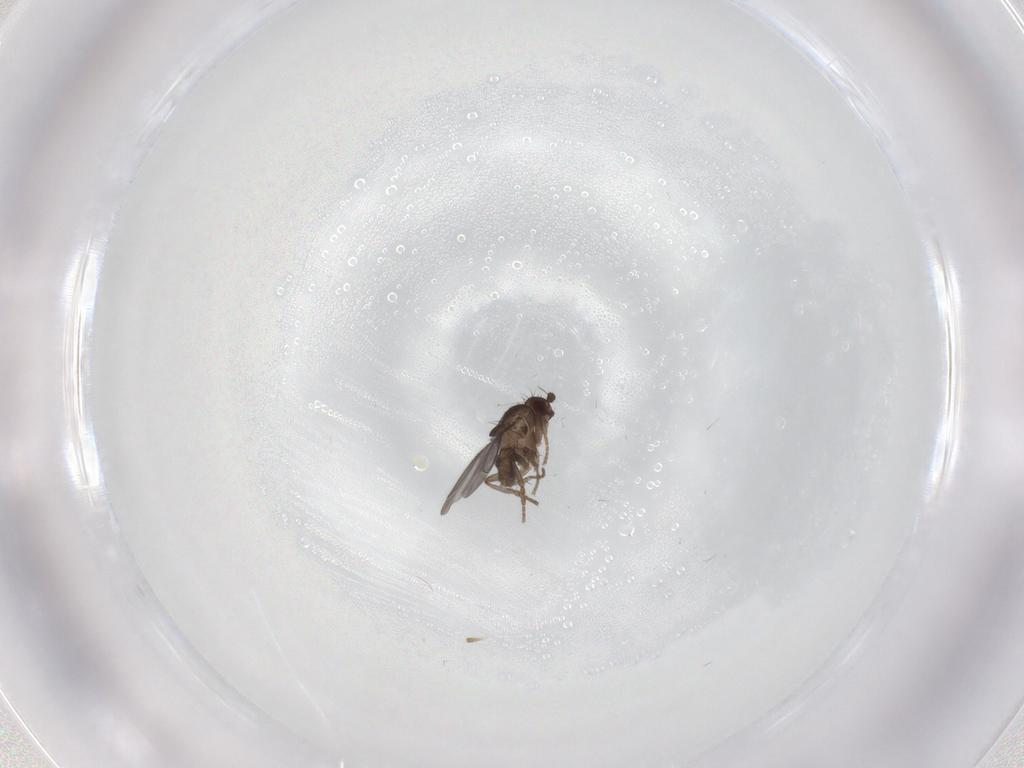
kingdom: Animalia
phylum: Arthropoda
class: Insecta
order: Diptera
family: Sphaeroceridae
